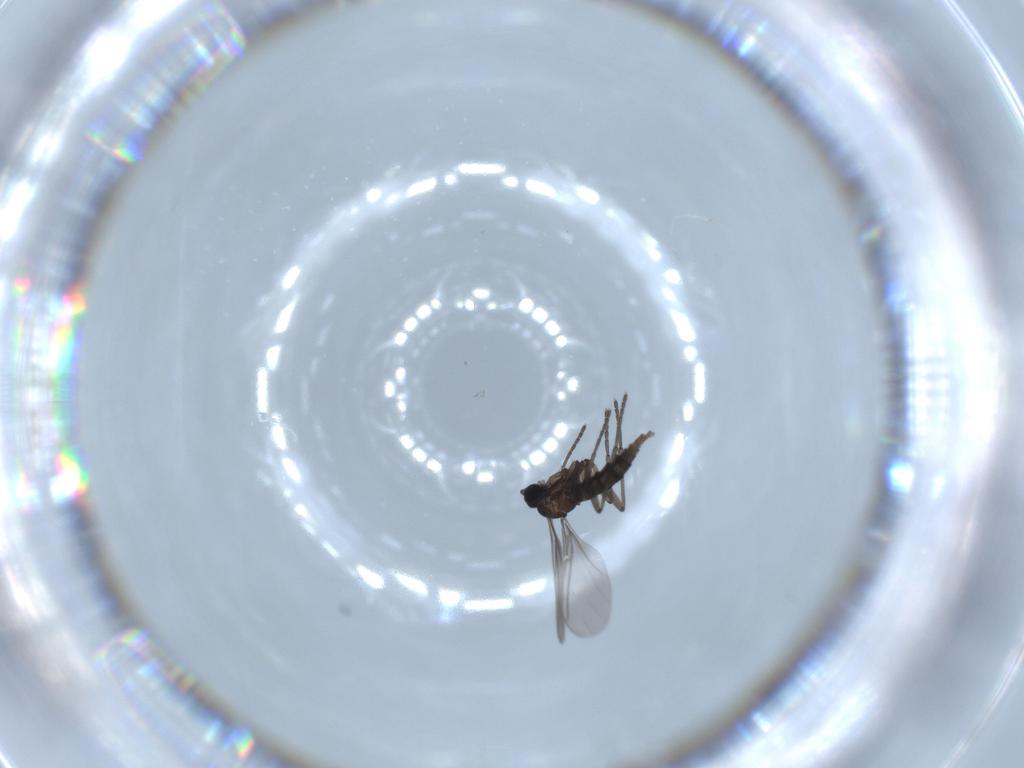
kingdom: Animalia
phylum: Arthropoda
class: Insecta
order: Diptera
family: Sciaridae
